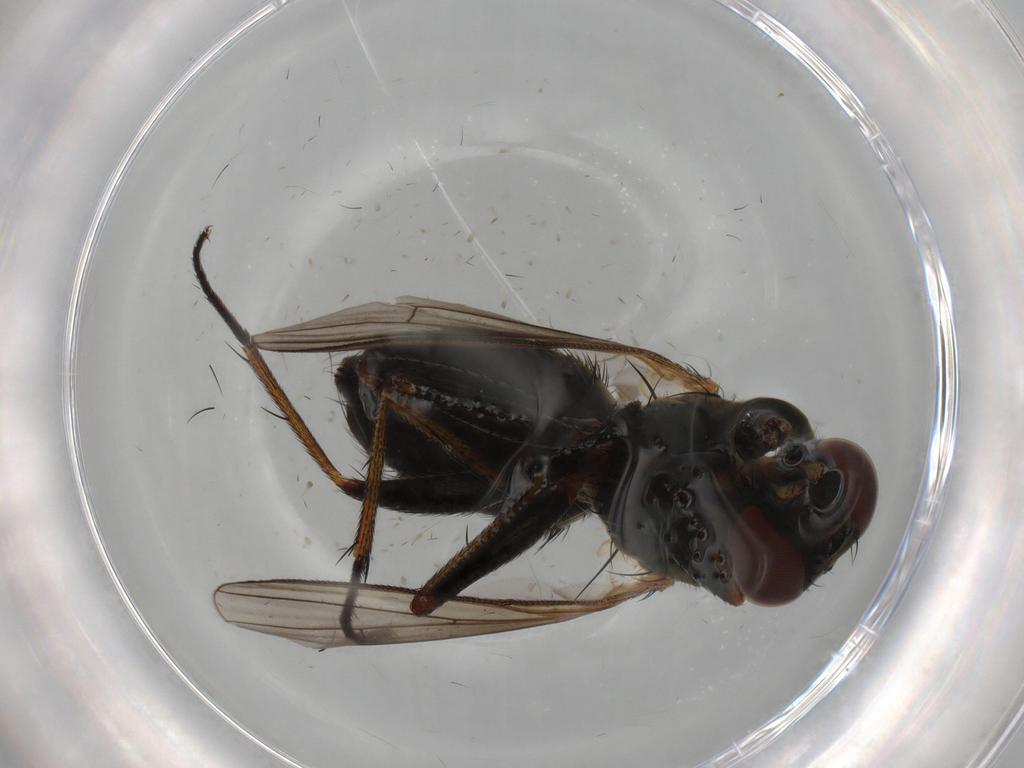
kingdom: Animalia
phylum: Arthropoda
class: Insecta
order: Diptera
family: Muscidae
